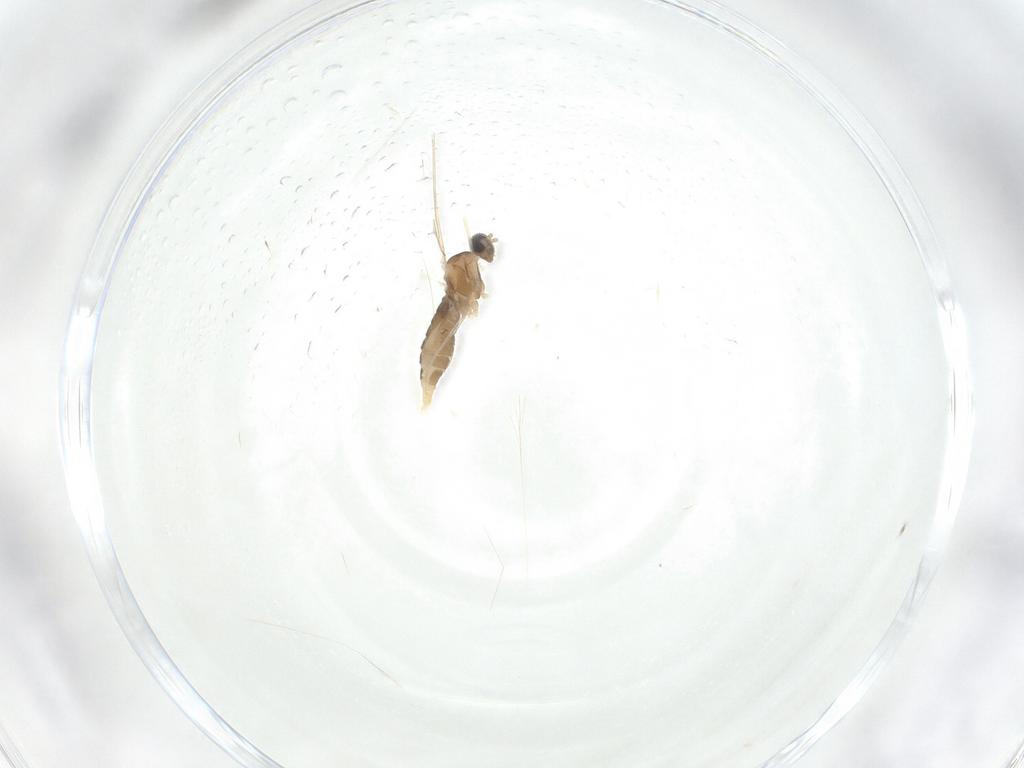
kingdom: Animalia
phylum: Arthropoda
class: Insecta
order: Diptera
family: Cecidomyiidae
